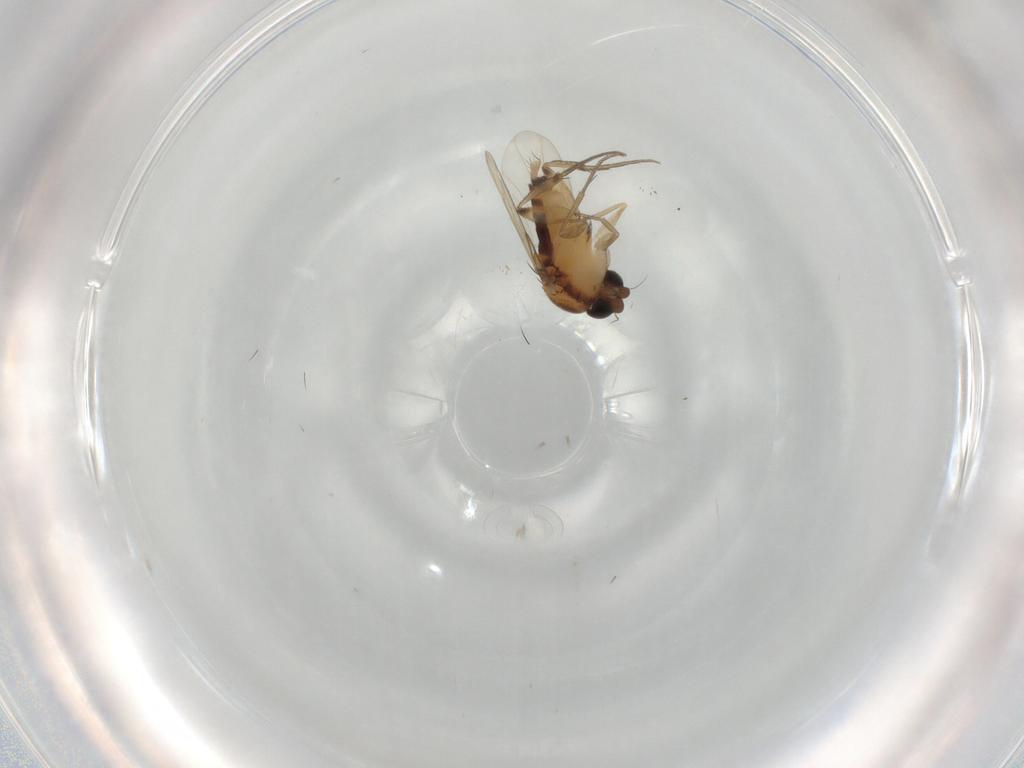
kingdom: Animalia
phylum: Arthropoda
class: Insecta
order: Diptera
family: Phoridae
